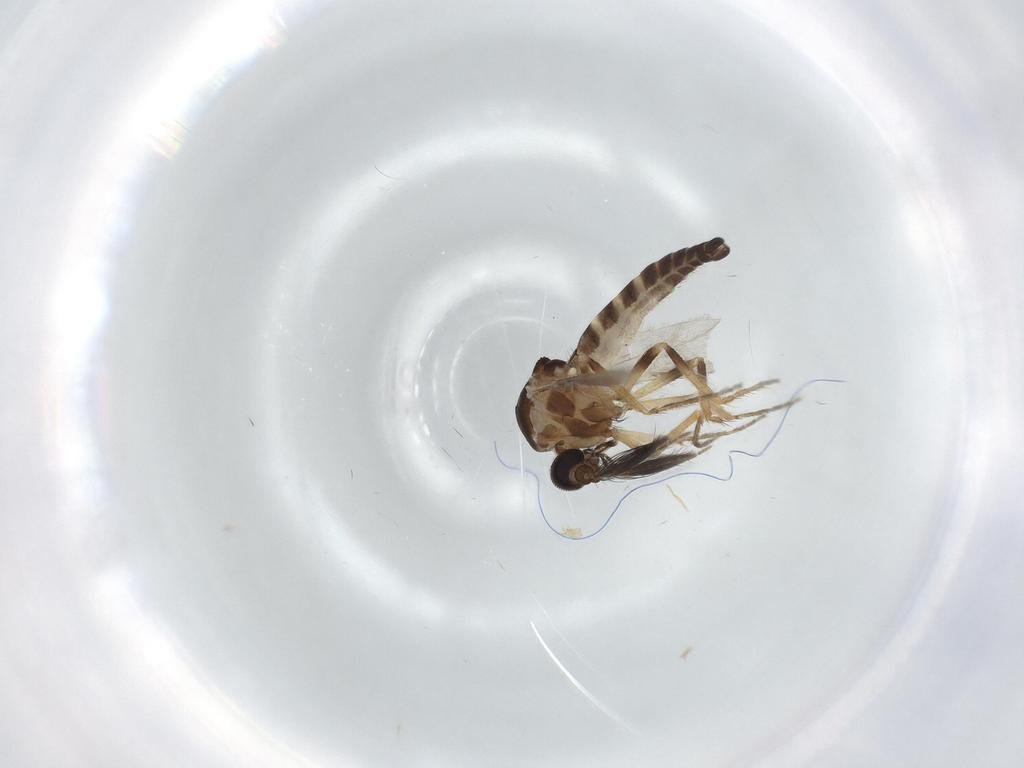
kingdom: Animalia
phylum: Arthropoda
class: Insecta
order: Diptera
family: Ceratopogonidae
